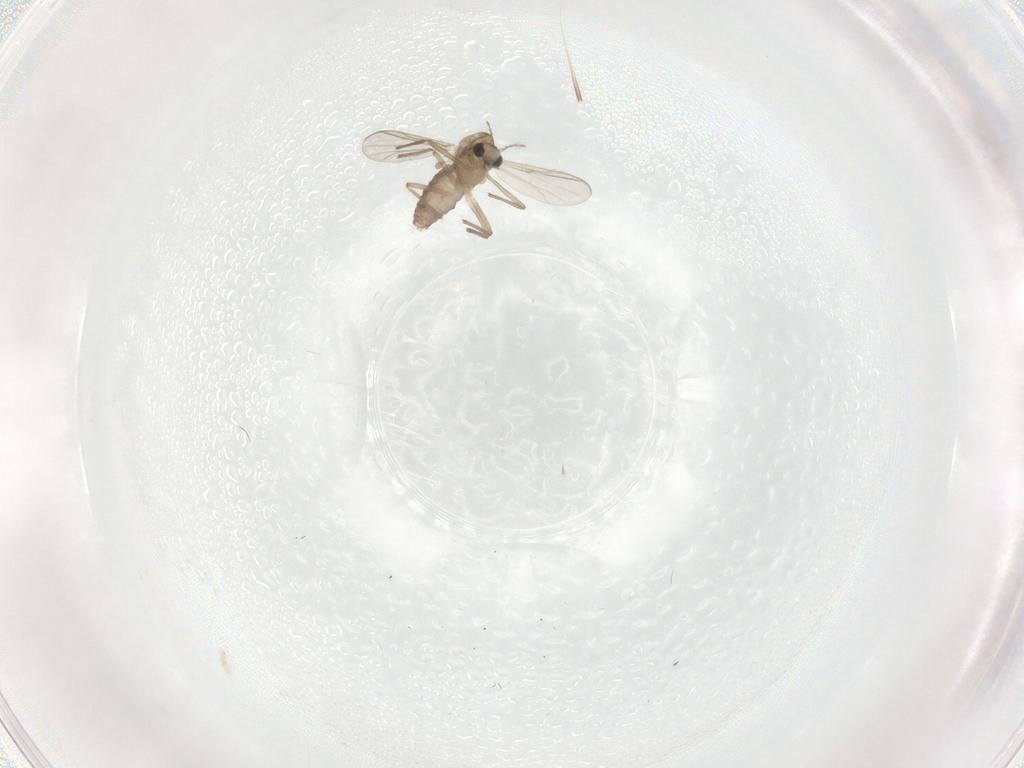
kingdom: Animalia
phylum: Arthropoda
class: Insecta
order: Diptera
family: Chironomidae
